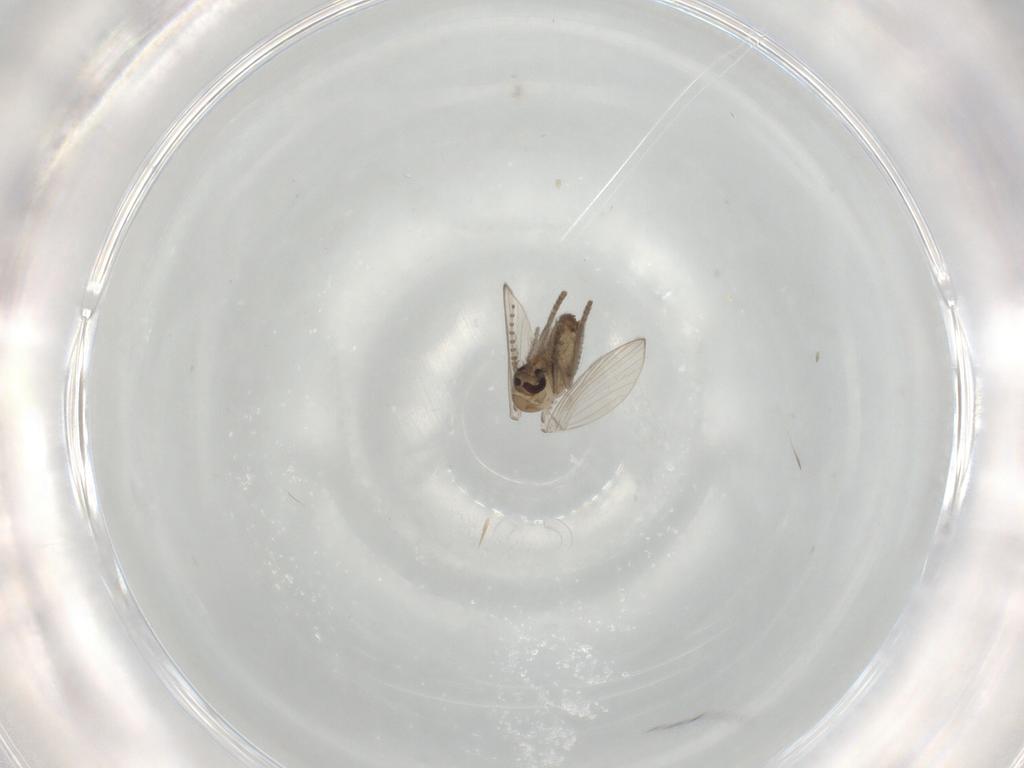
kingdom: Animalia
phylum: Arthropoda
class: Insecta
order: Diptera
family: Psychodidae
